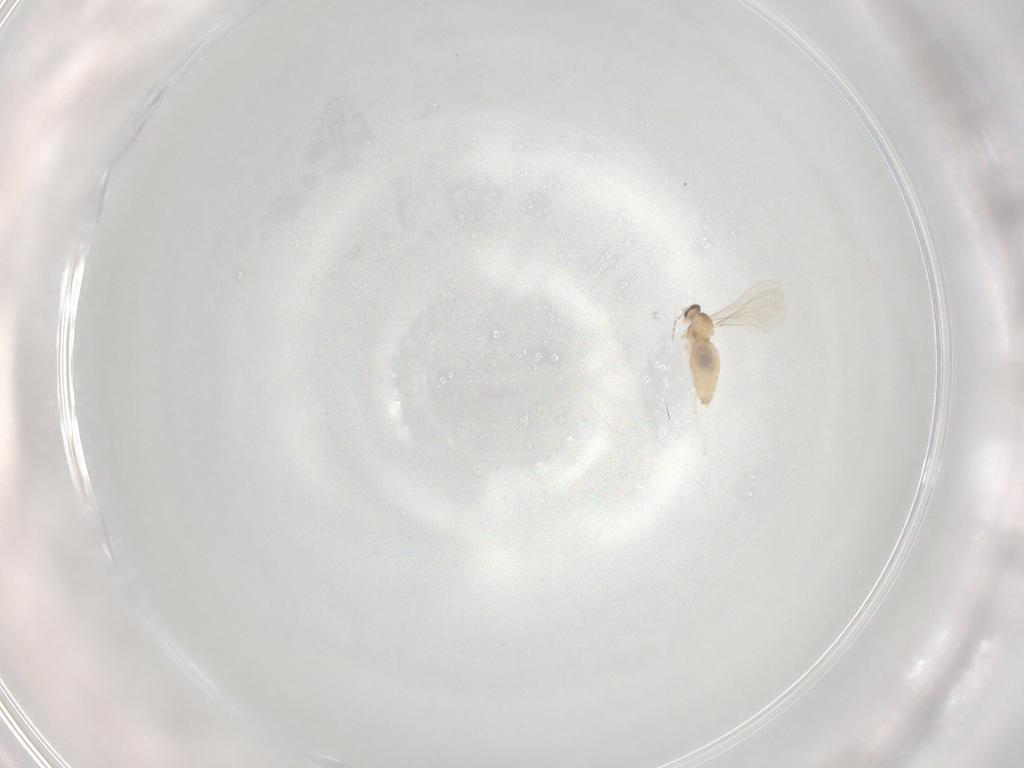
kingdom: Animalia
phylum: Arthropoda
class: Insecta
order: Diptera
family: Cecidomyiidae
